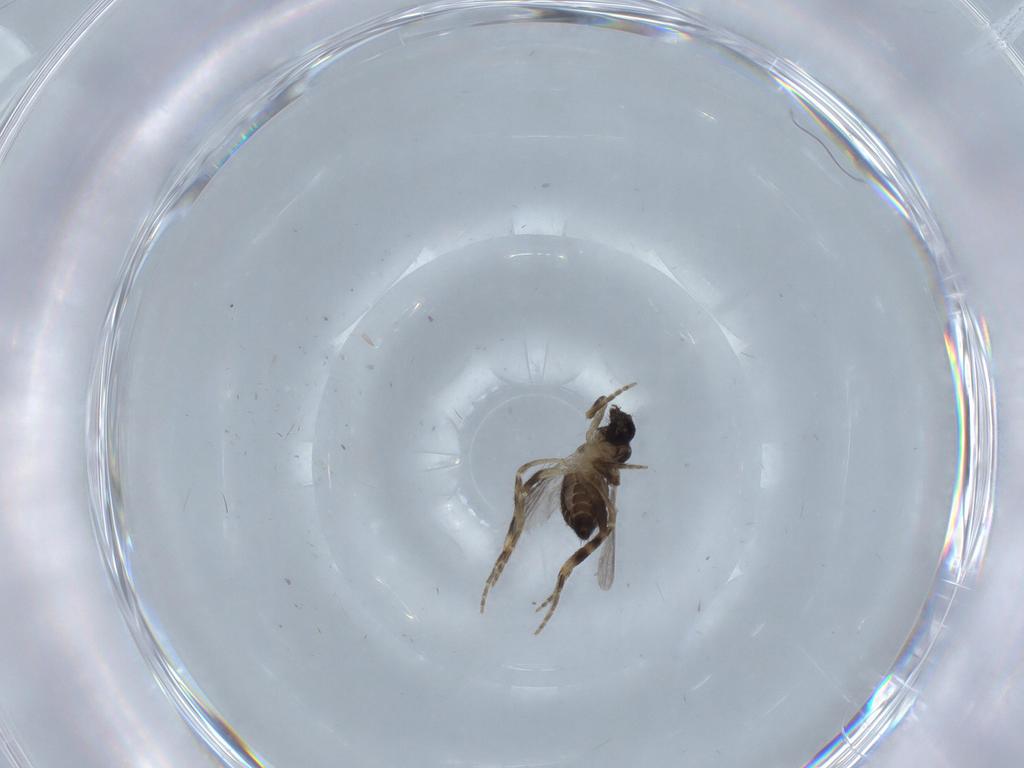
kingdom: Animalia
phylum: Arthropoda
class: Insecta
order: Diptera
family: Ceratopogonidae
